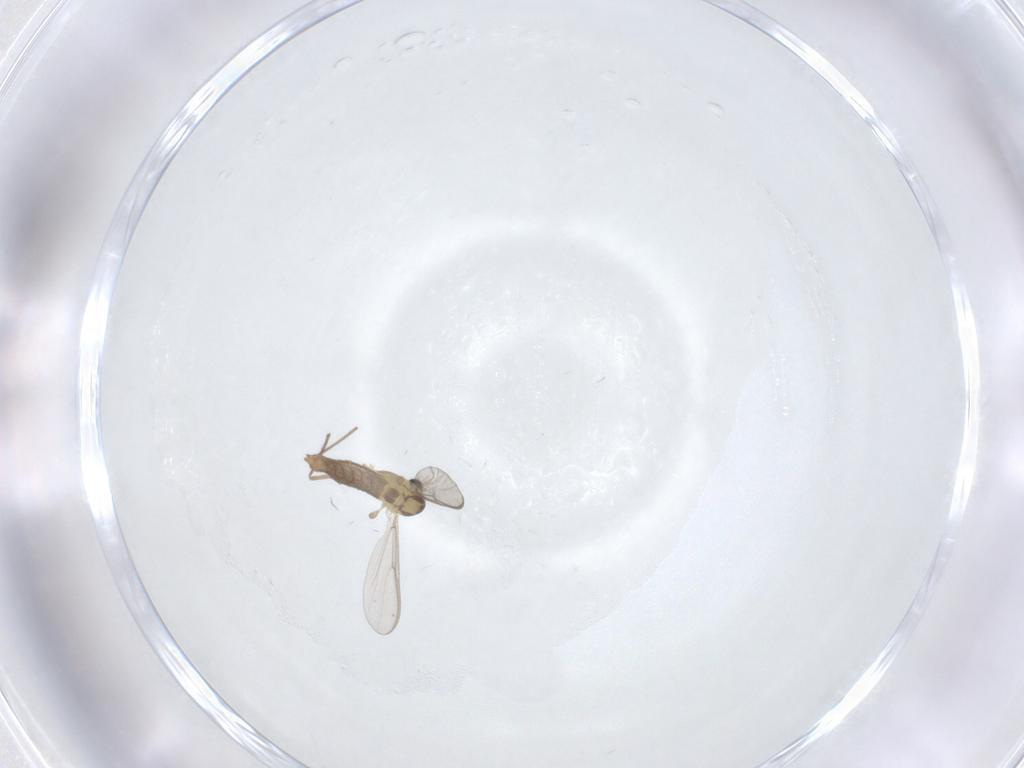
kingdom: Animalia
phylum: Arthropoda
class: Insecta
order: Diptera
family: Chironomidae
